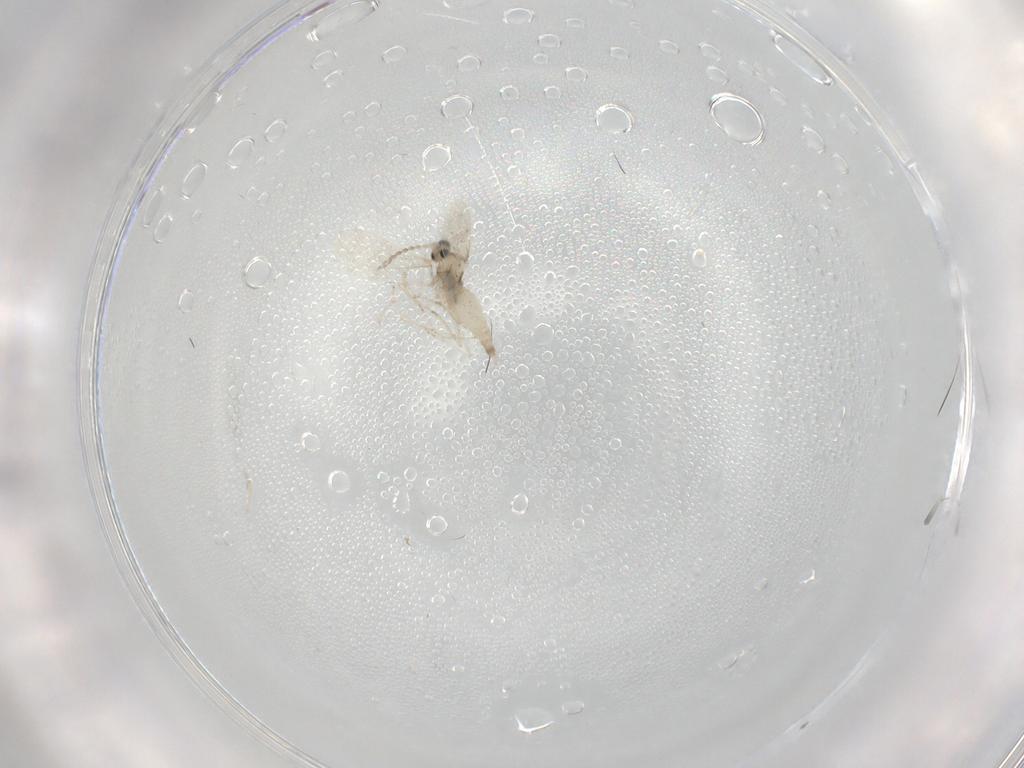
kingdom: Animalia
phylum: Arthropoda
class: Insecta
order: Diptera
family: Cecidomyiidae
